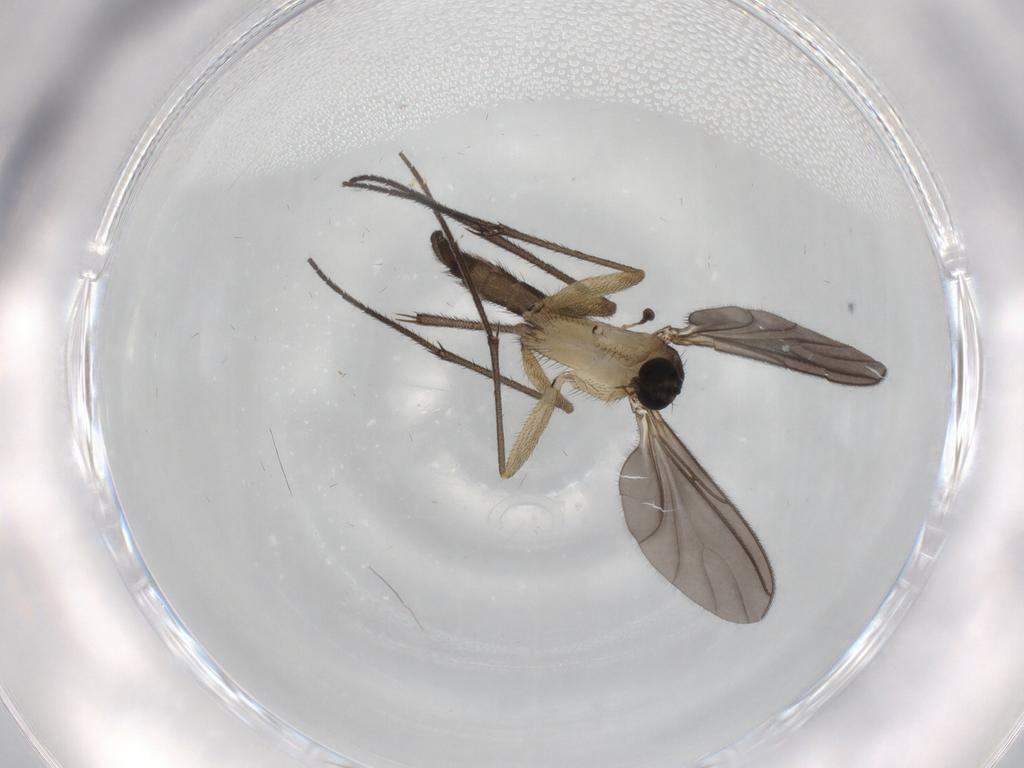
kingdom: Animalia
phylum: Arthropoda
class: Insecta
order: Diptera
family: Sciaridae
